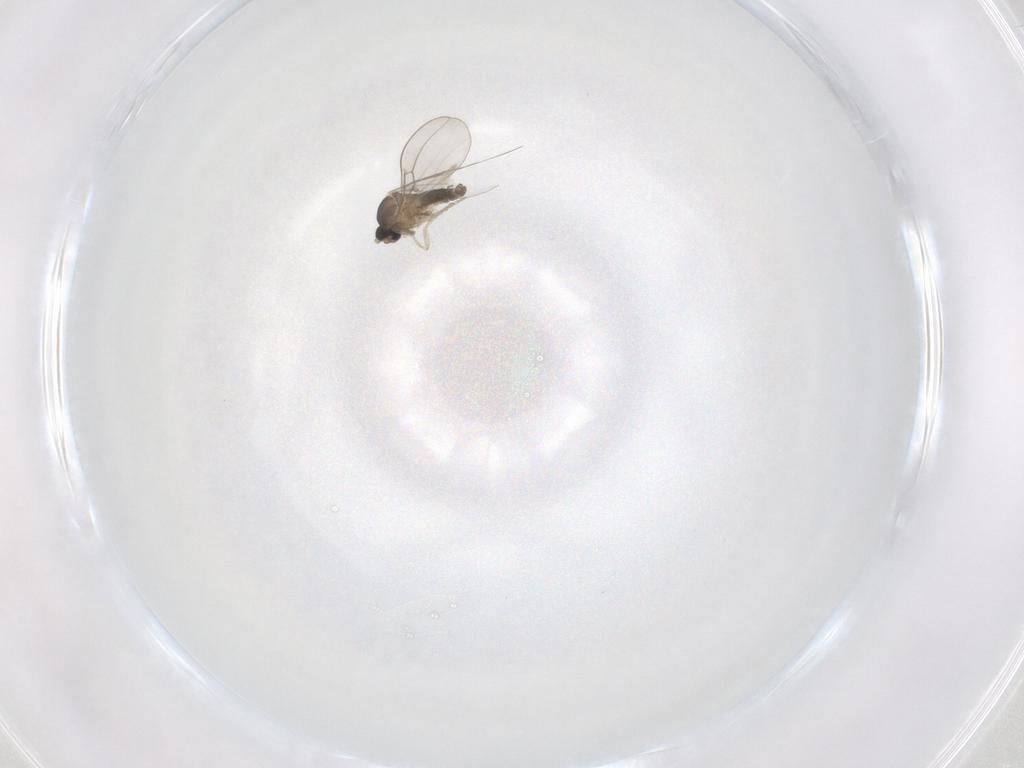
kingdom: Animalia
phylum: Arthropoda
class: Insecta
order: Diptera
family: Cecidomyiidae
